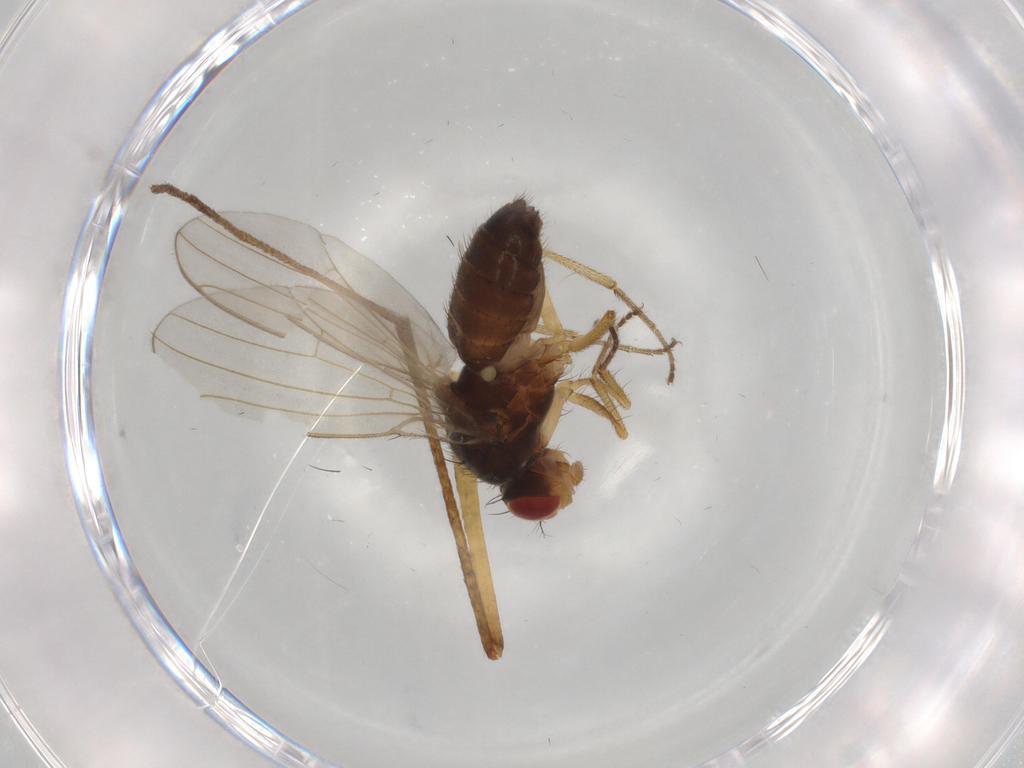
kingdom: Animalia
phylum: Arthropoda
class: Insecta
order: Diptera
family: Drosophilidae
